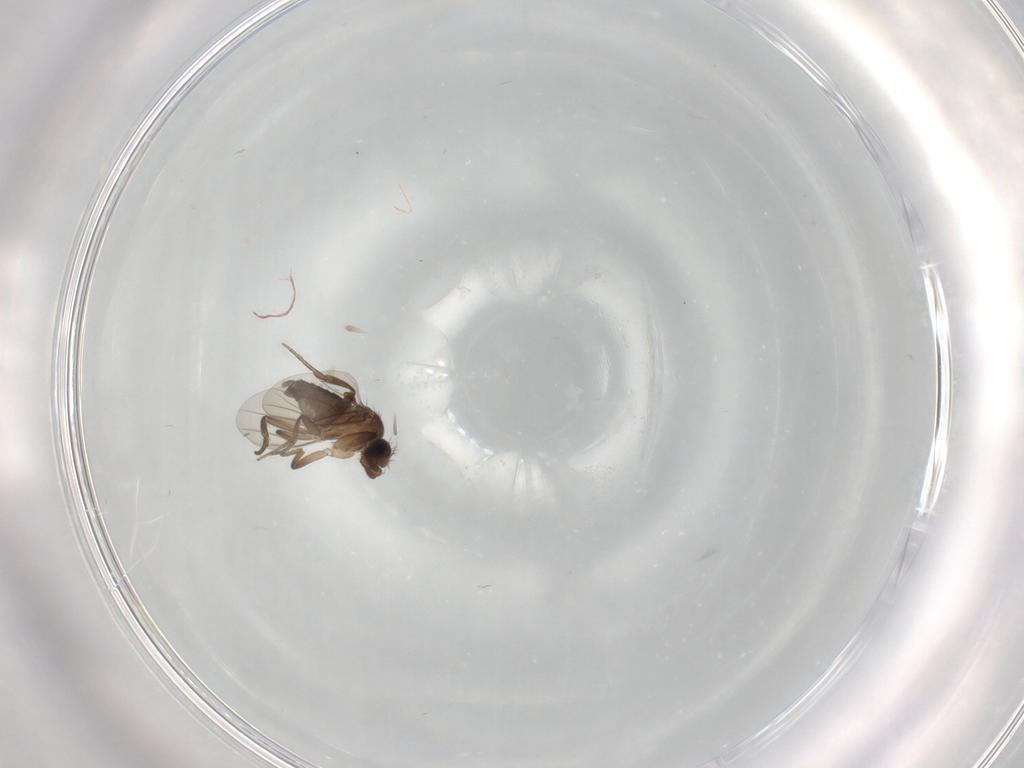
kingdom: Animalia
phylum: Arthropoda
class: Insecta
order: Diptera
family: Phoridae
